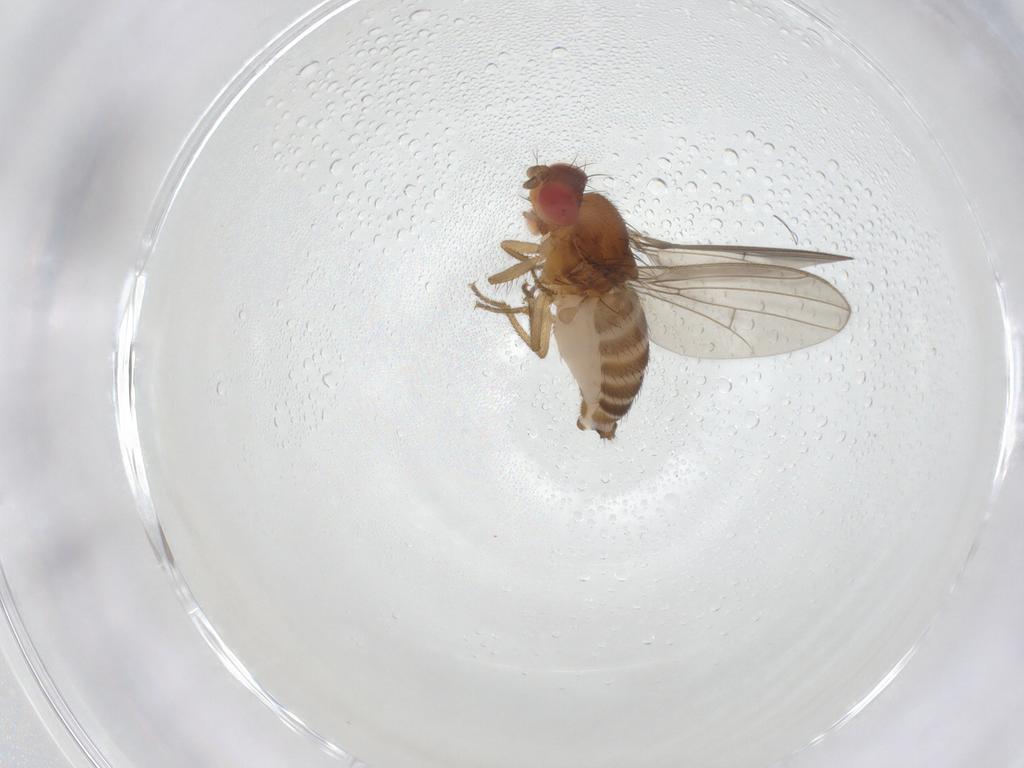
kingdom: Animalia
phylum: Arthropoda
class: Insecta
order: Diptera
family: Drosophilidae
